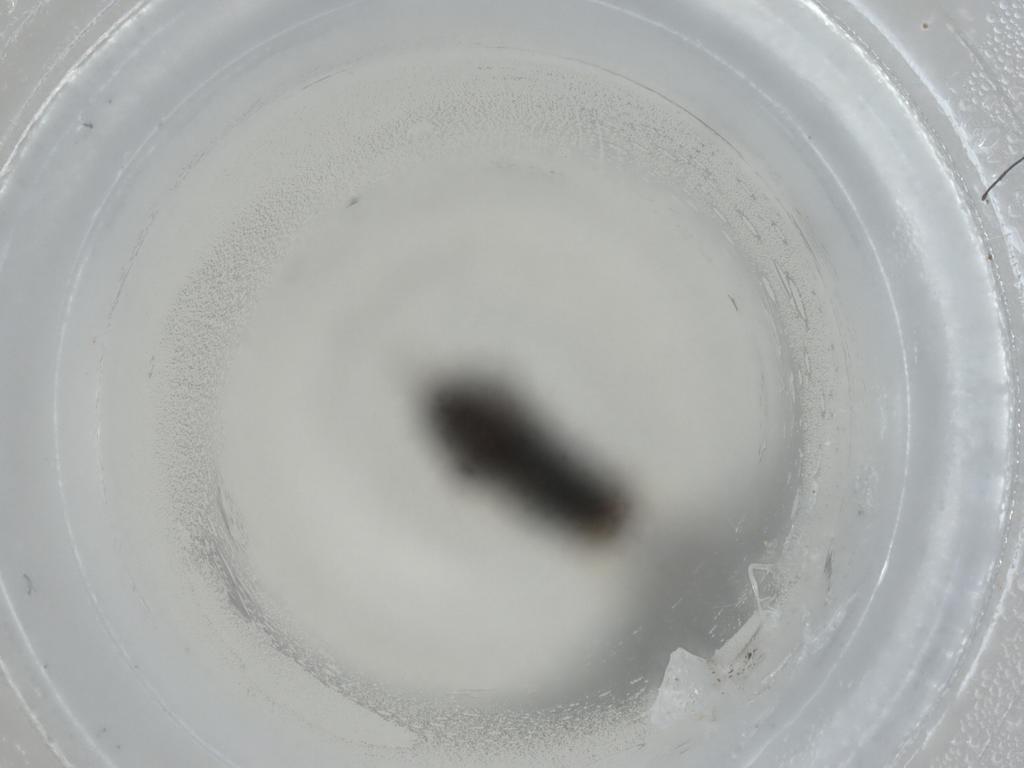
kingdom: Animalia
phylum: Arthropoda
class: Insecta
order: Diptera
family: Chloropidae
